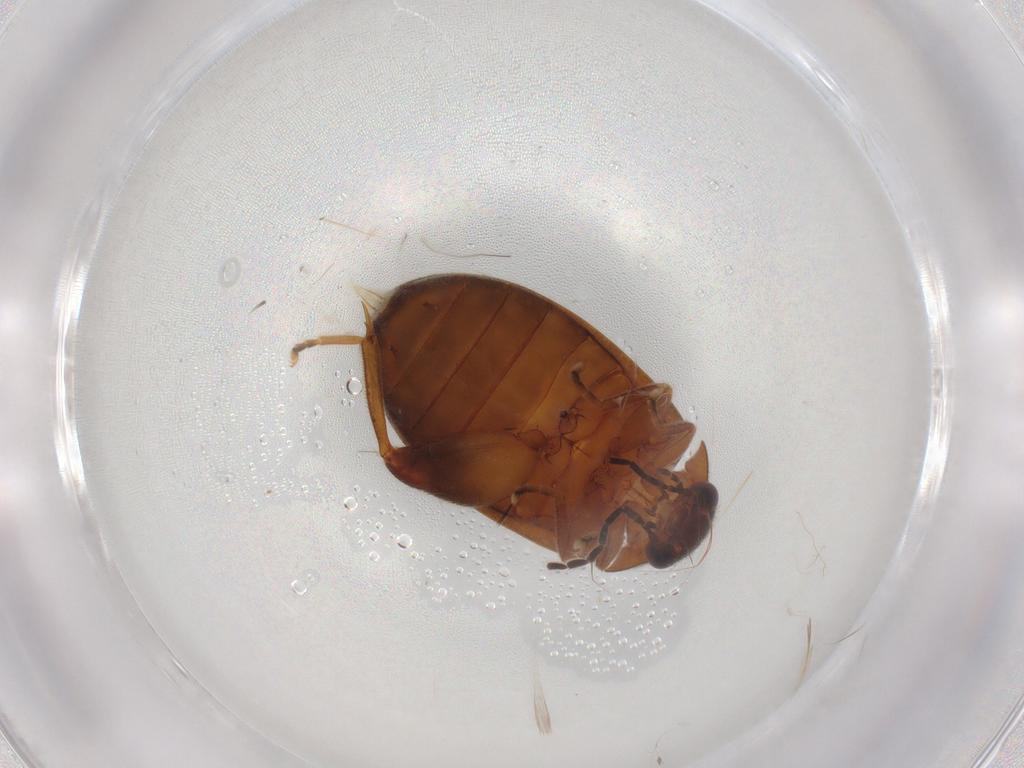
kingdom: Animalia
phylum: Arthropoda
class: Insecta
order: Coleoptera
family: Scirtidae
